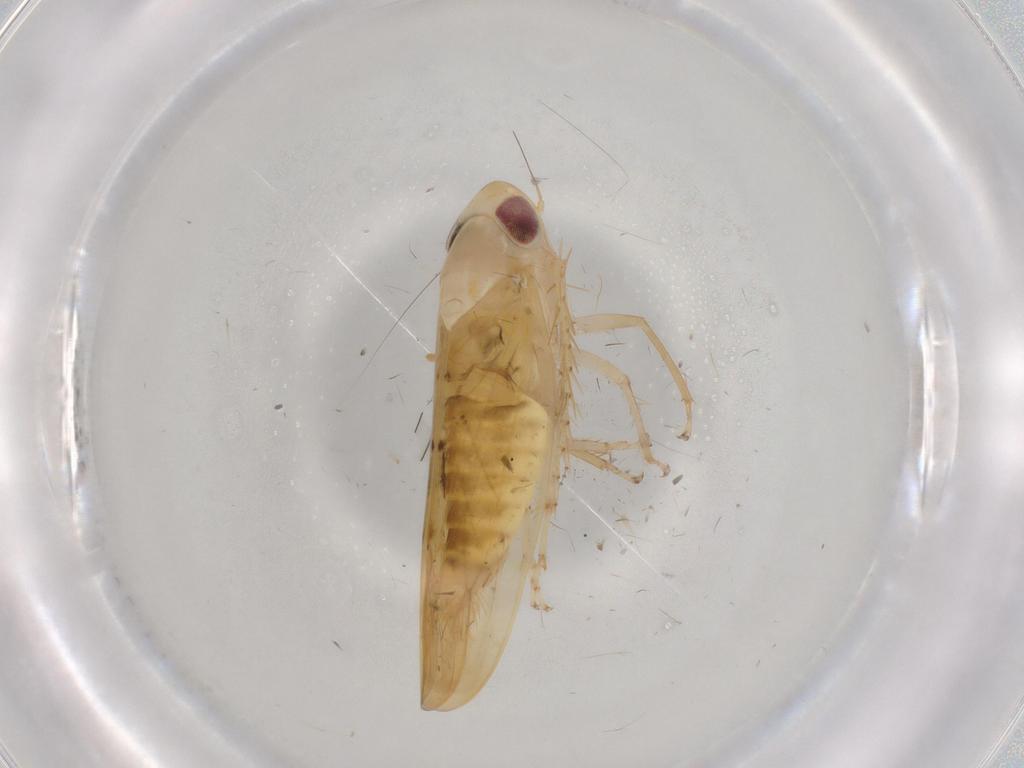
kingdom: Animalia
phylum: Arthropoda
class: Insecta
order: Hemiptera
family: Cicadellidae
